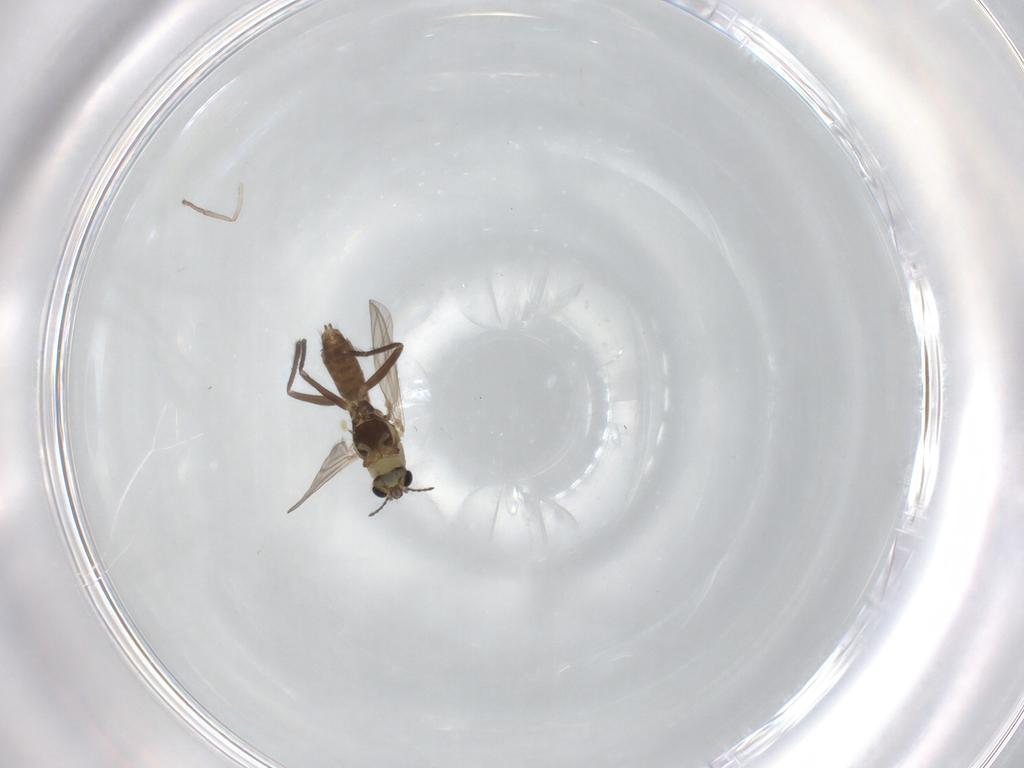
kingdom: Animalia
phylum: Arthropoda
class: Insecta
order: Diptera
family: Chironomidae
